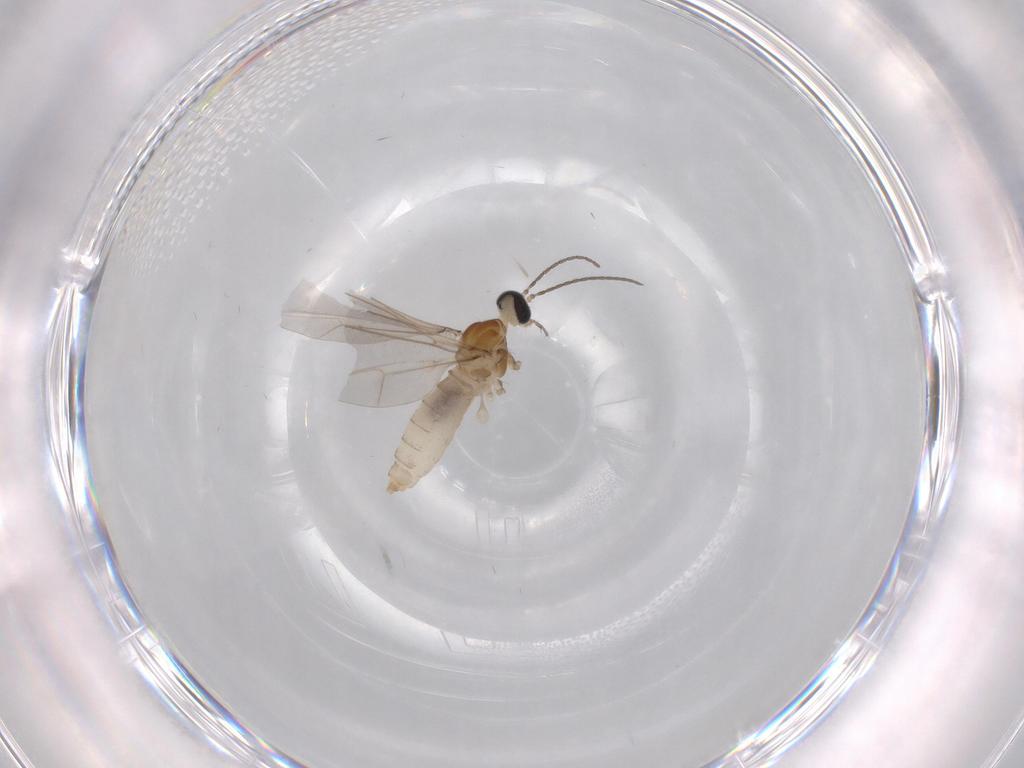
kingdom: Animalia
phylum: Arthropoda
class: Insecta
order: Diptera
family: Cecidomyiidae
